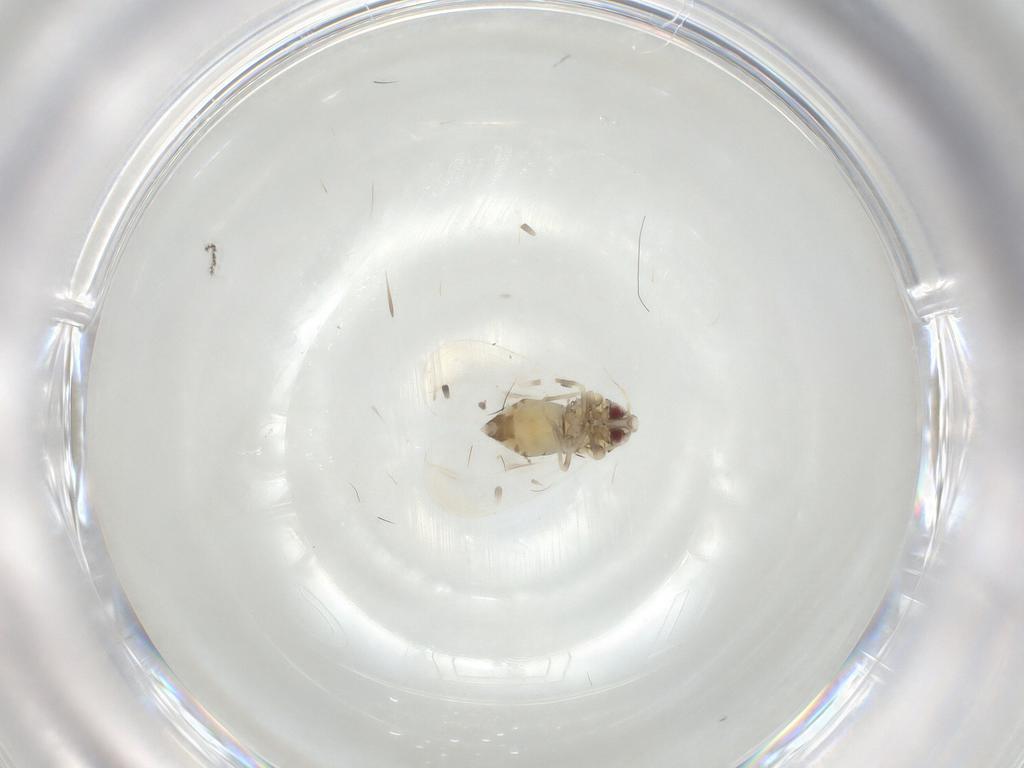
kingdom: Animalia
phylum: Arthropoda
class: Insecta
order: Hemiptera
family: Aleyrodidae
